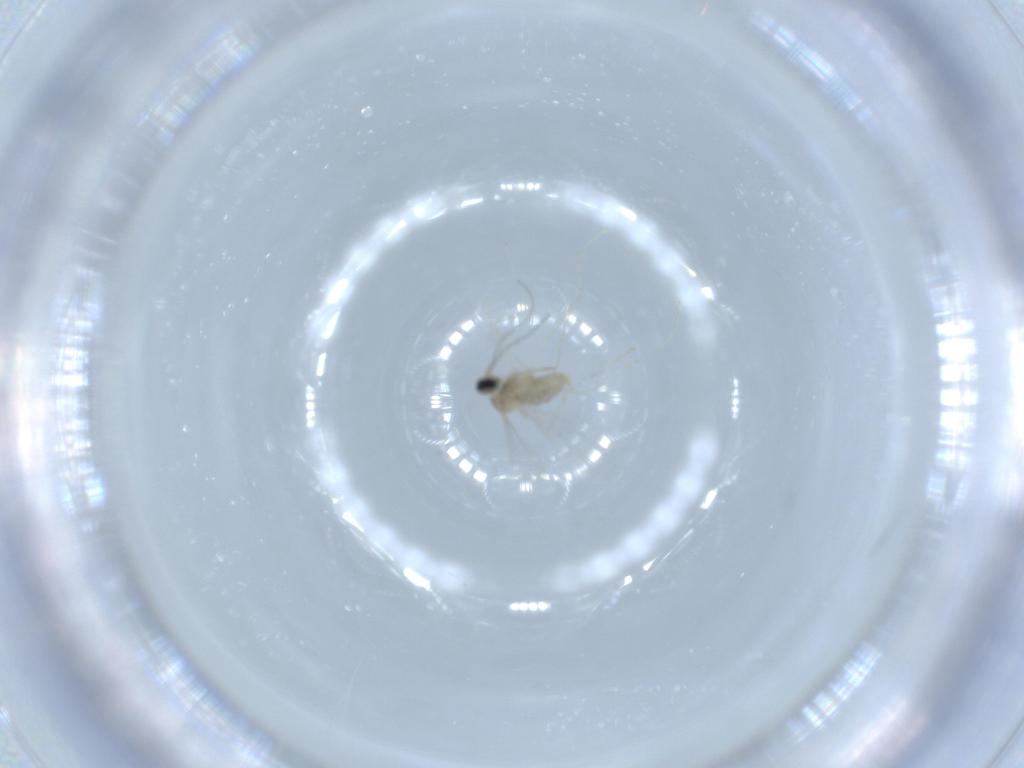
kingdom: Animalia
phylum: Arthropoda
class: Insecta
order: Diptera
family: Cecidomyiidae
